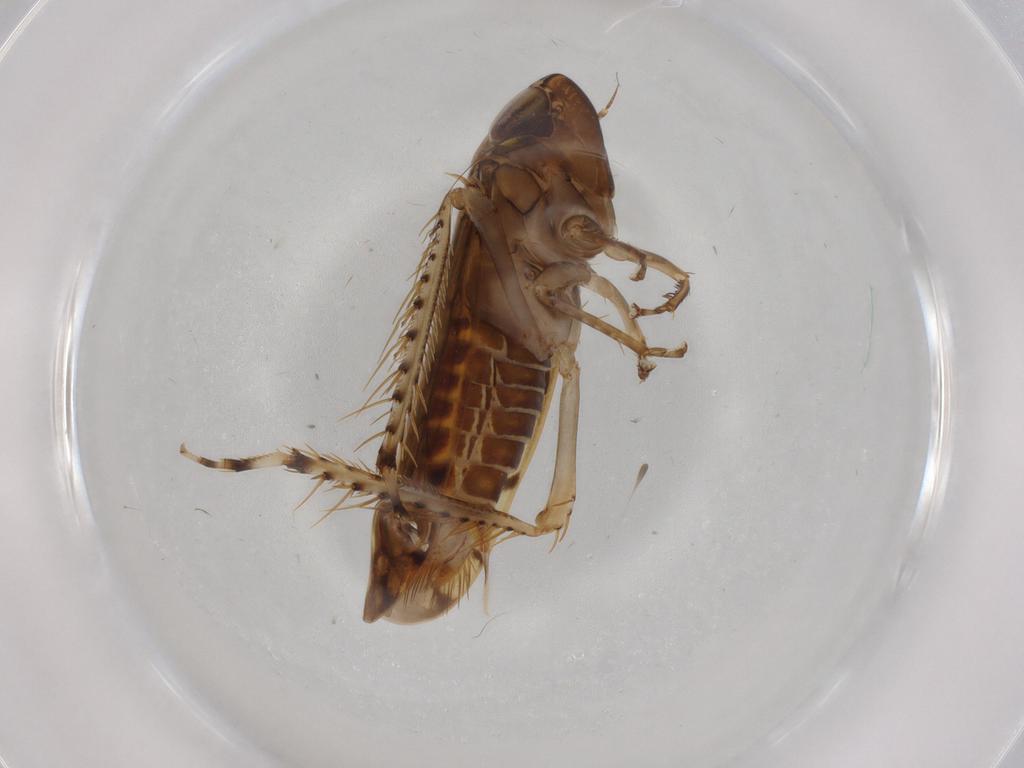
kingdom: Animalia
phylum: Arthropoda
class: Insecta
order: Hemiptera
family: Cicadellidae
